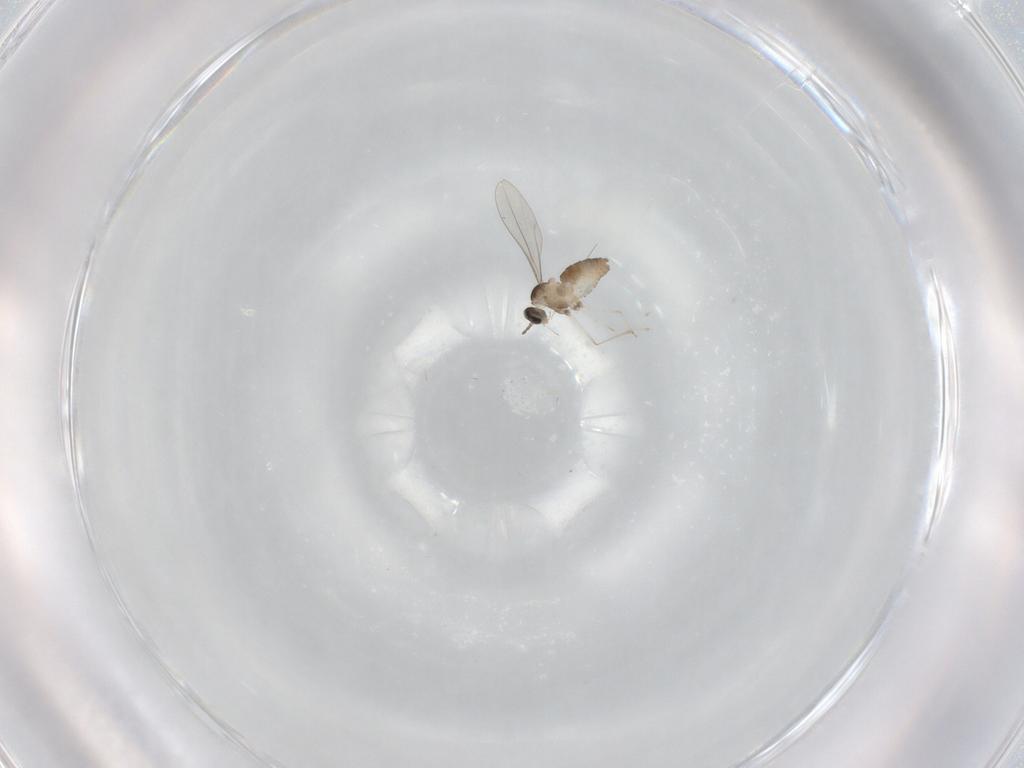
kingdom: Animalia
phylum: Arthropoda
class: Insecta
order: Diptera
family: Cecidomyiidae
